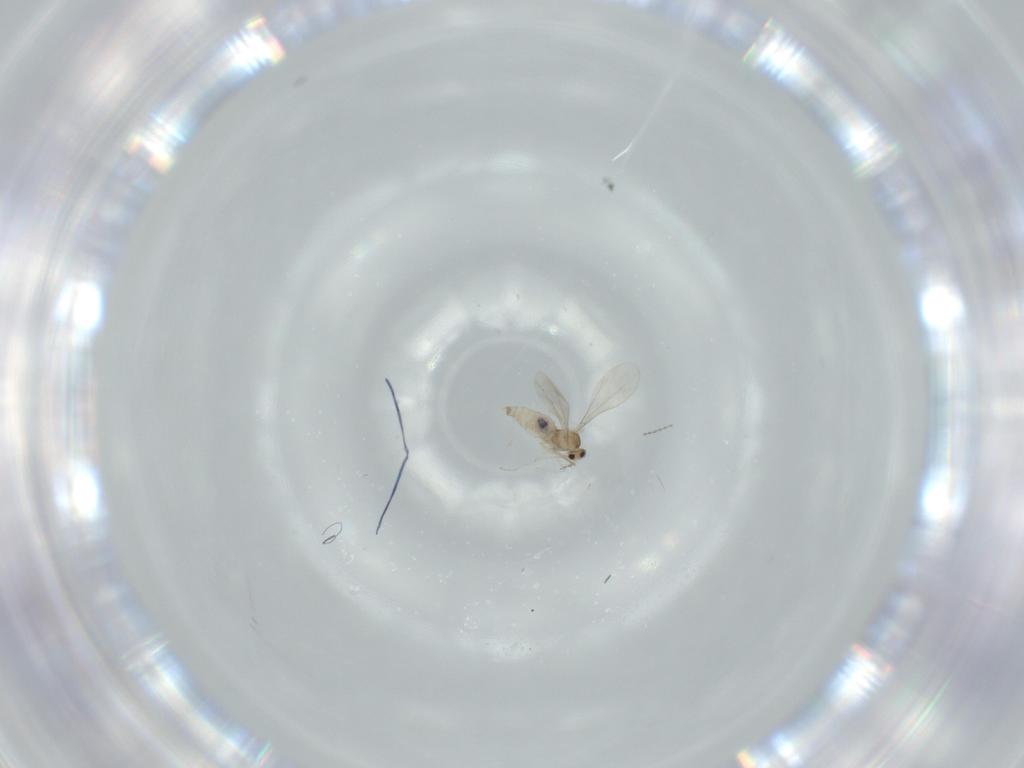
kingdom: Animalia
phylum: Arthropoda
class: Insecta
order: Diptera
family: Cecidomyiidae
